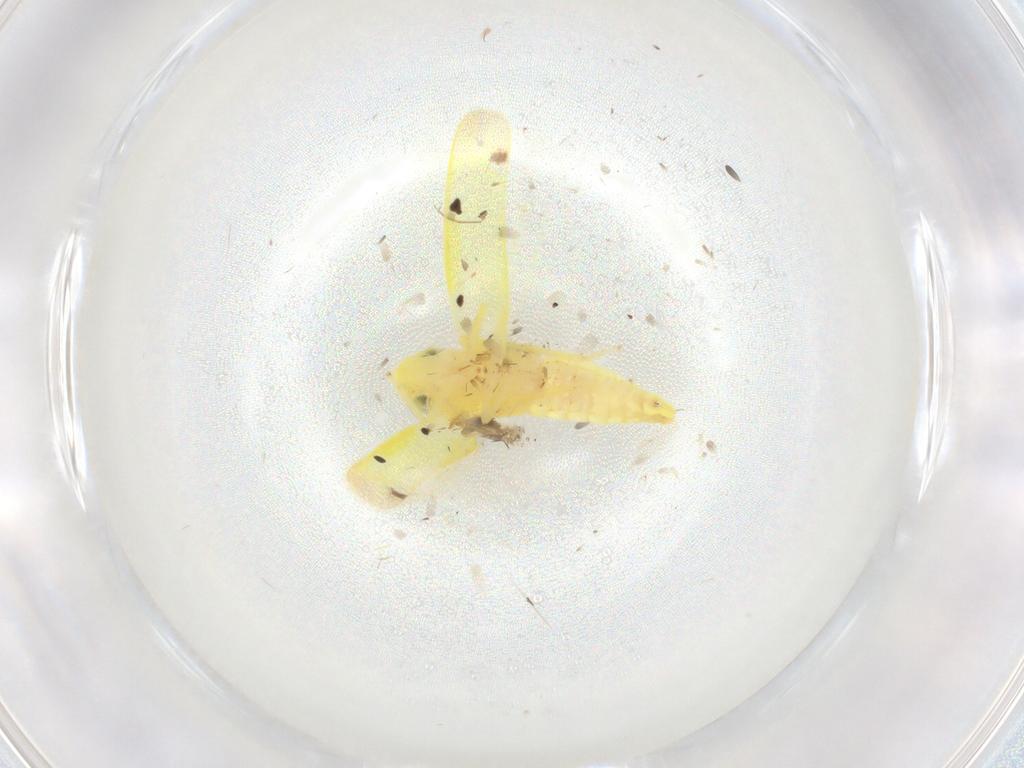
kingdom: Animalia
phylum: Arthropoda
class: Insecta
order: Hemiptera
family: Cicadellidae
